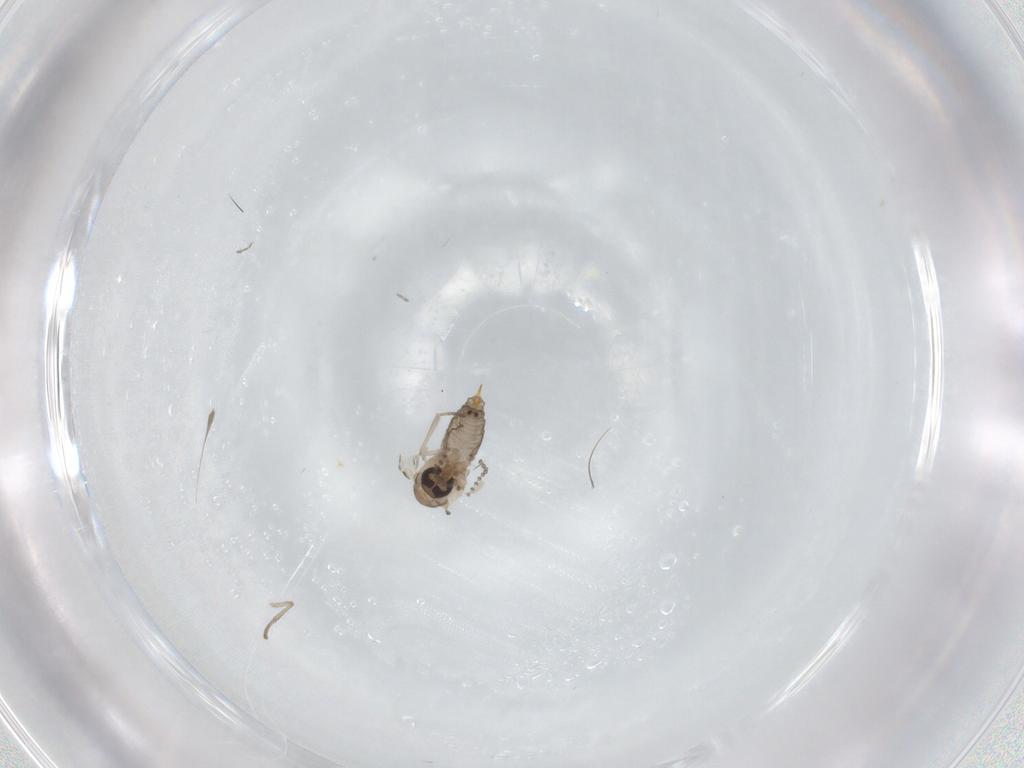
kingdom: Animalia
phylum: Arthropoda
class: Insecta
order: Diptera
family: Psychodidae
